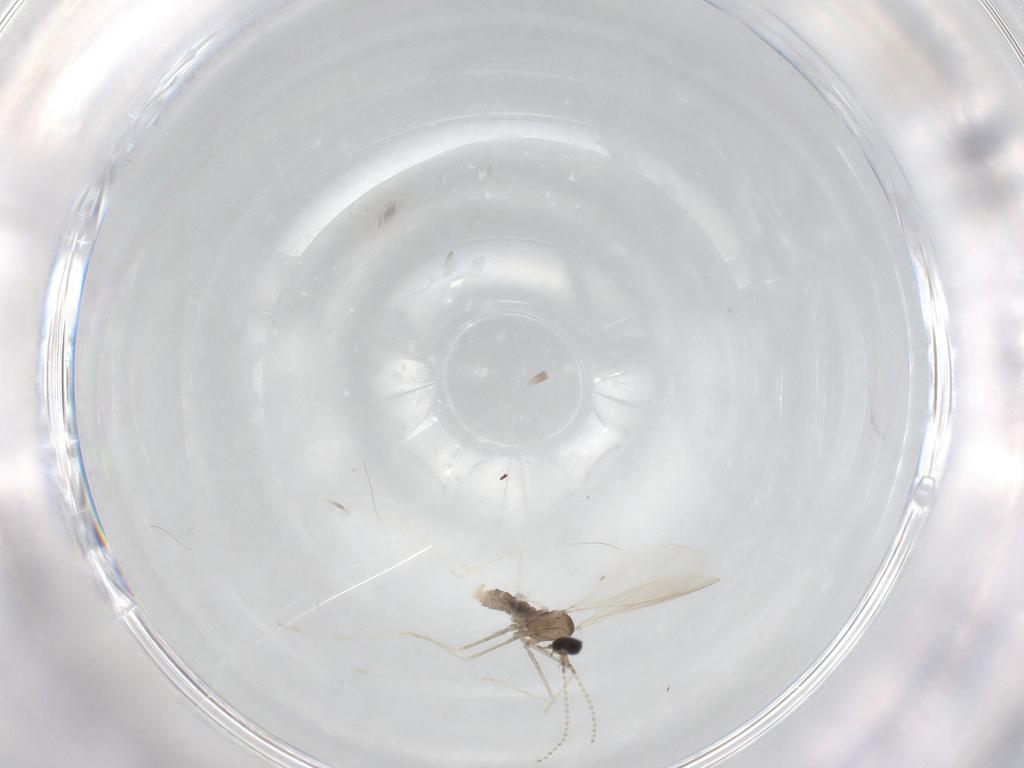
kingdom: Animalia
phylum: Arthropoda
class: Insecta
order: Diptera
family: Cecidomyiidae
